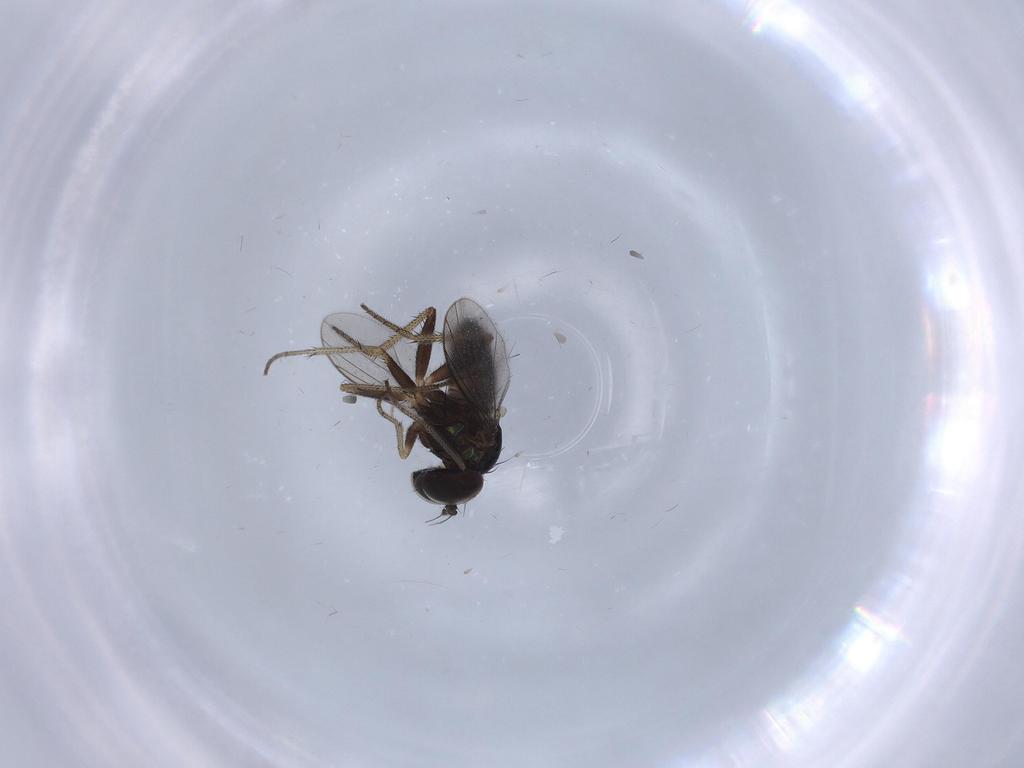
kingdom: Animalia
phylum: Arthropoda
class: Insecta
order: Diptera
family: Dolichopodidae
